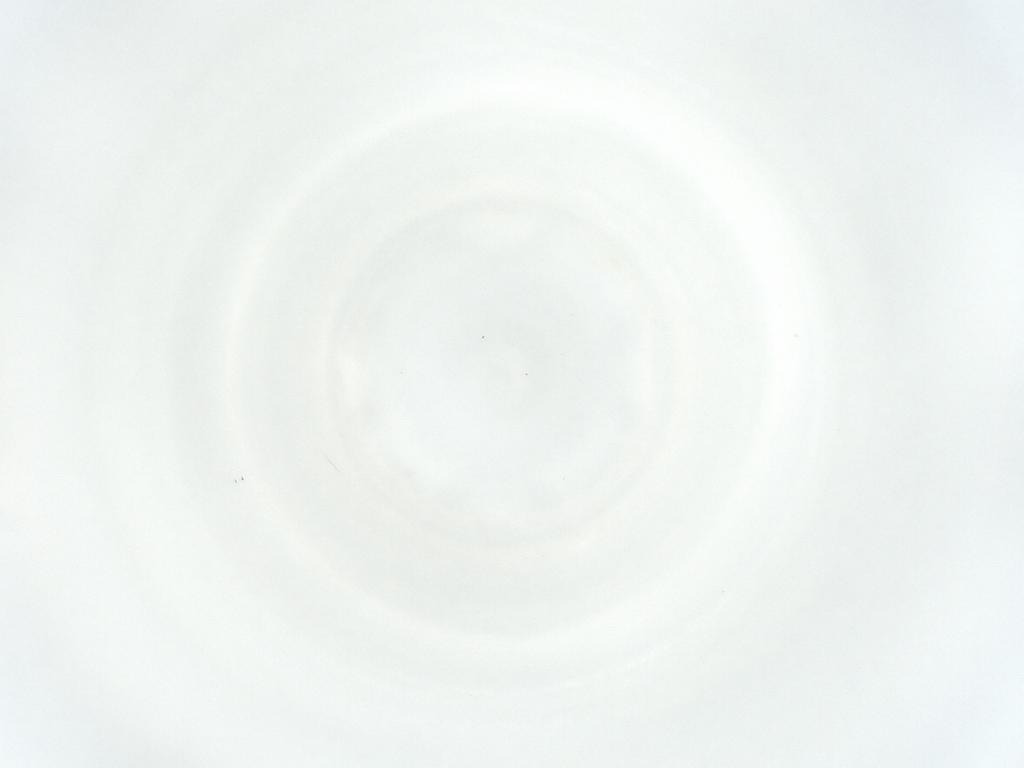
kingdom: Animalia
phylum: Arthropoda
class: Arachnida
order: Mesostigmata
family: Phytoseiidae
